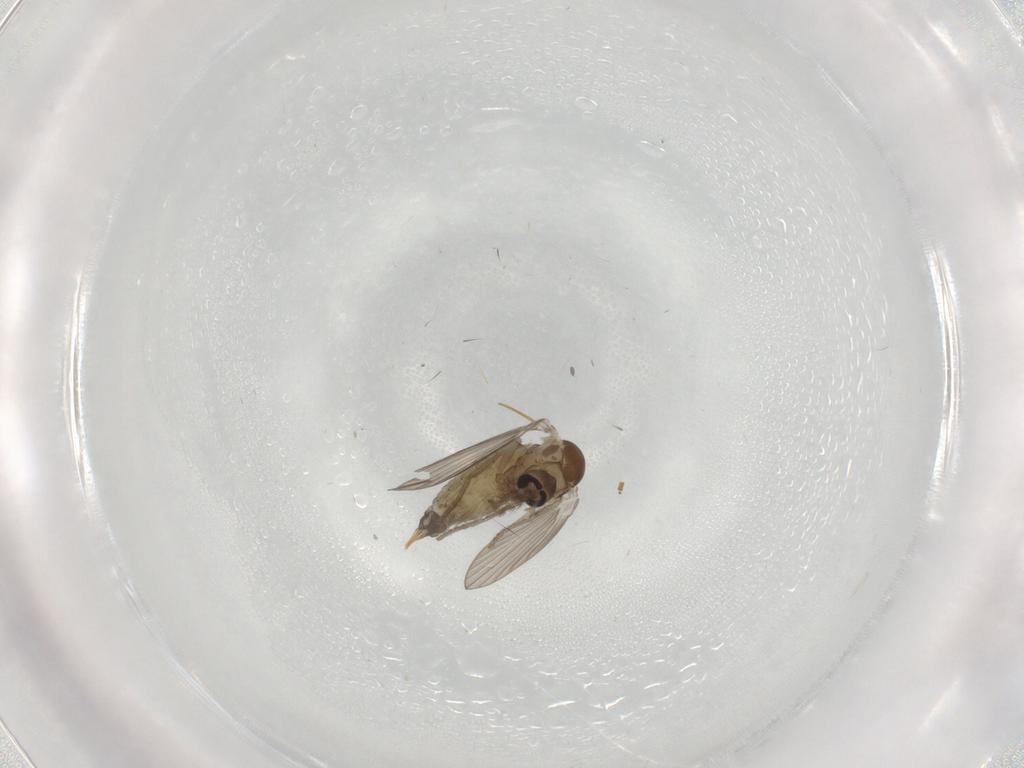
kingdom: Animalia
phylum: Arthropoda
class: Insecta
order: Diptera
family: Psychodidae
